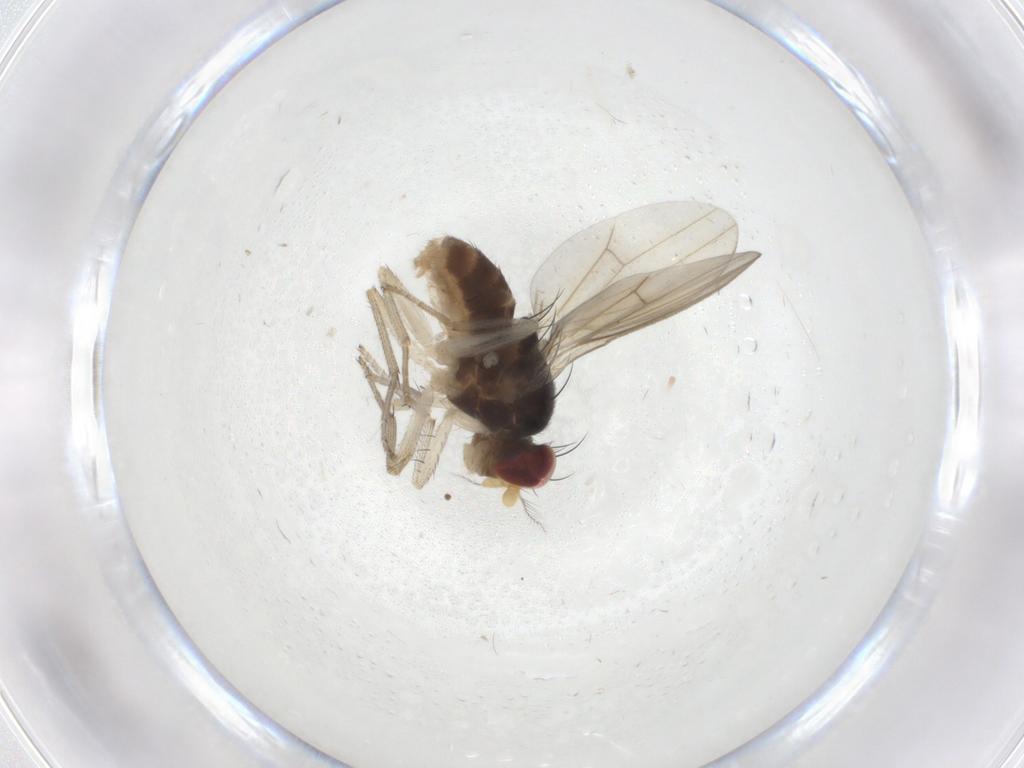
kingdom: Animalia
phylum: Arthropoda
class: Insecta
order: Diptera
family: Lauxaniidae
